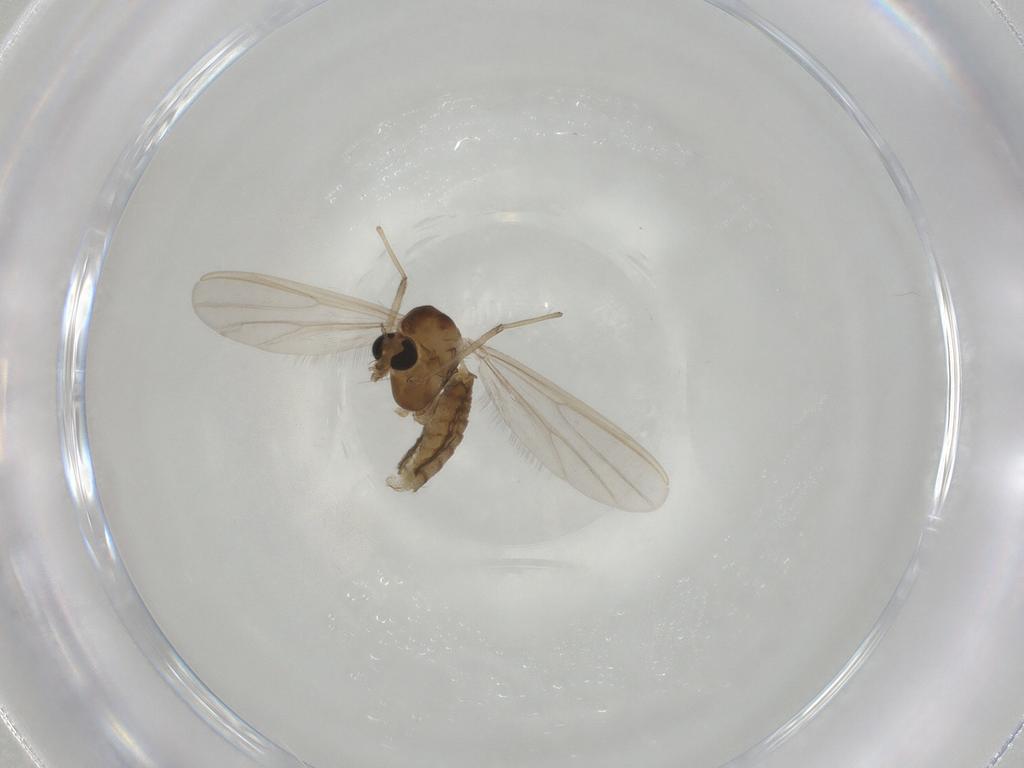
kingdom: Animalia
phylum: Arthropoda
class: Insecta
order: Diptera
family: Chironomidae
